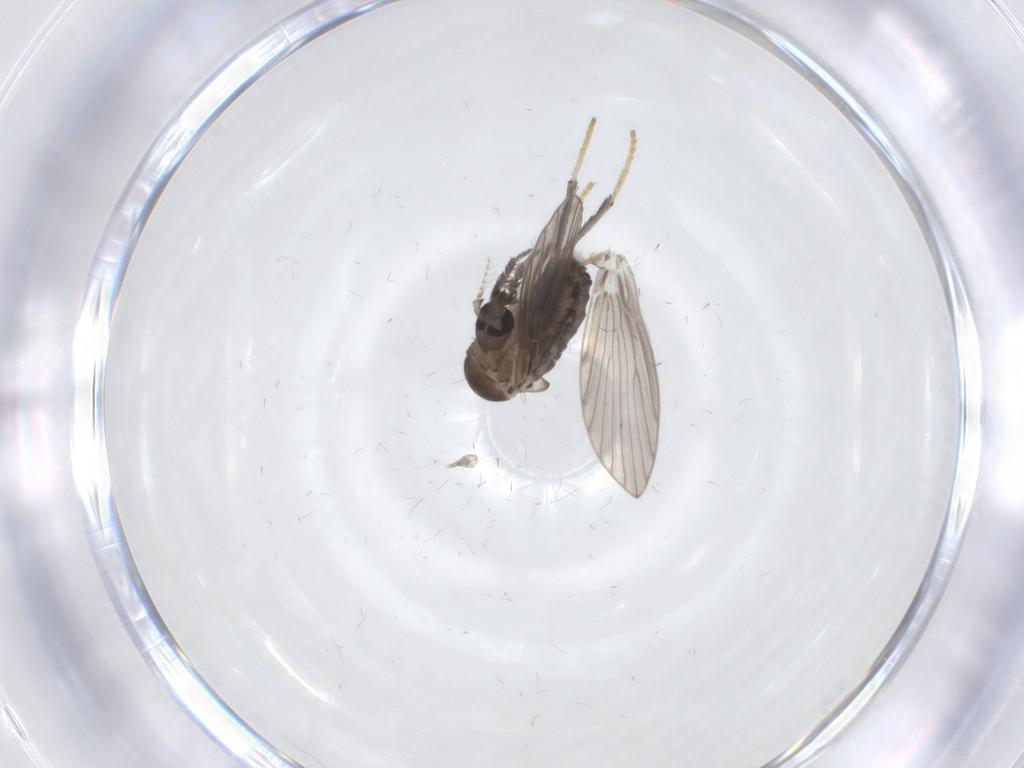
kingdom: Animalia
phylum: Arthropoda
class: Insecta
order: Diptera
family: Psychodidae
